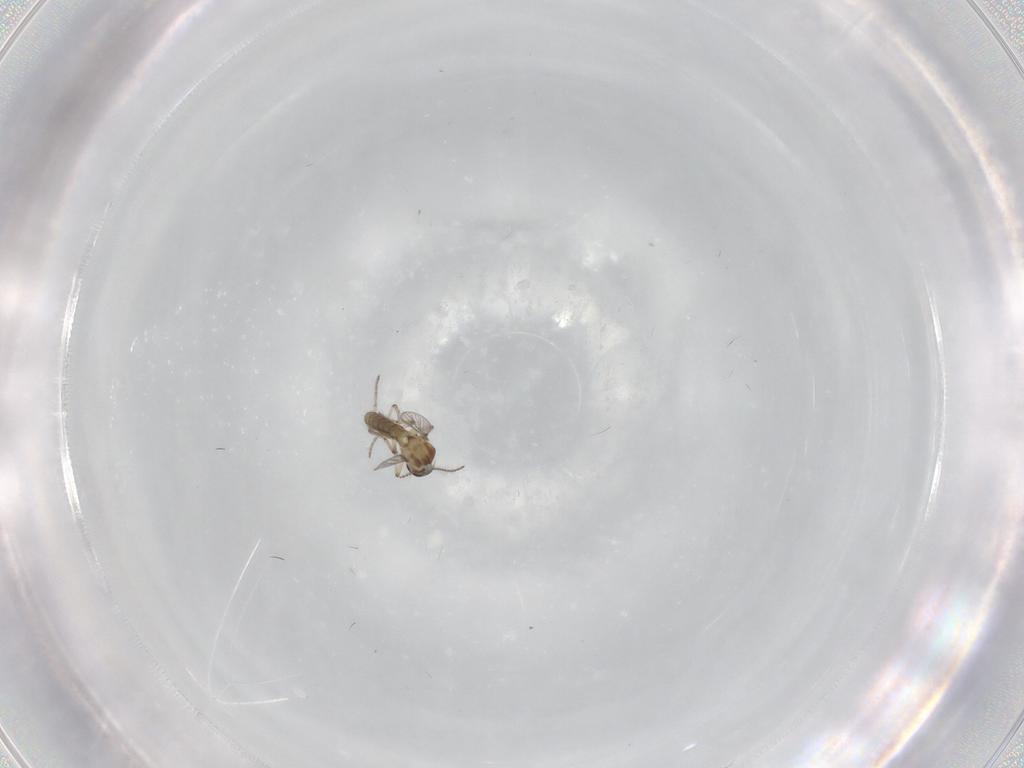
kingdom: Animalia
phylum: Arthropoda
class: Insecta
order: Diptera
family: Ceratopogonidae
